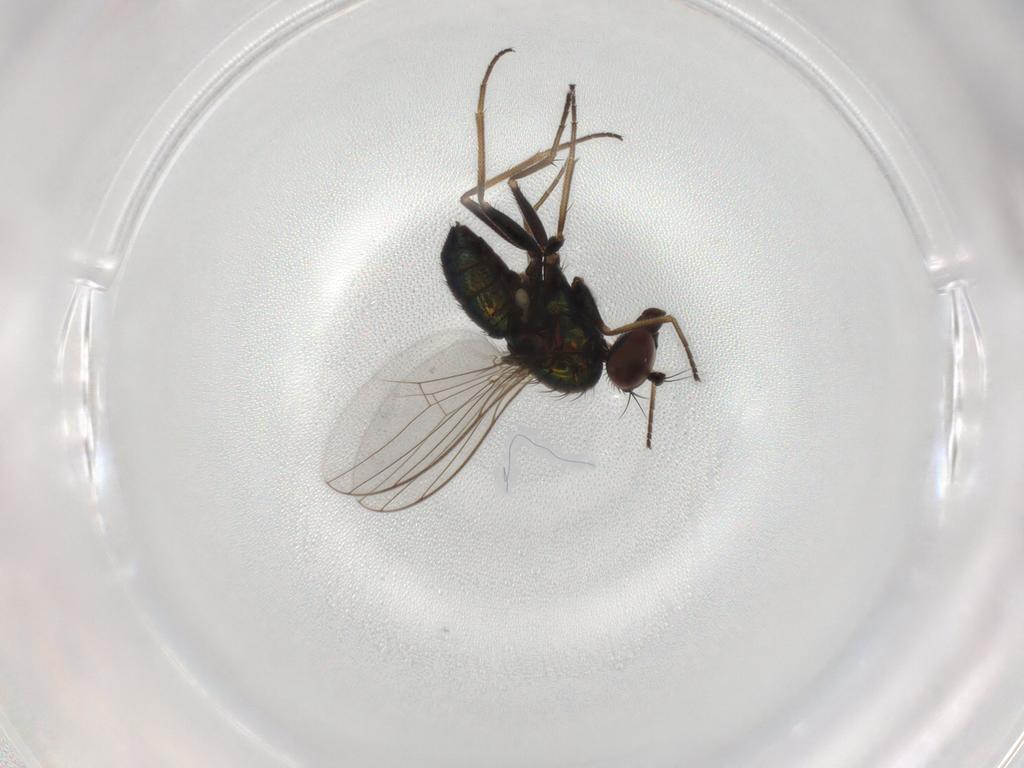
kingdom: Animalia
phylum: Arthropoda
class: Insecta
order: Diptera
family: Dolichopodidae
